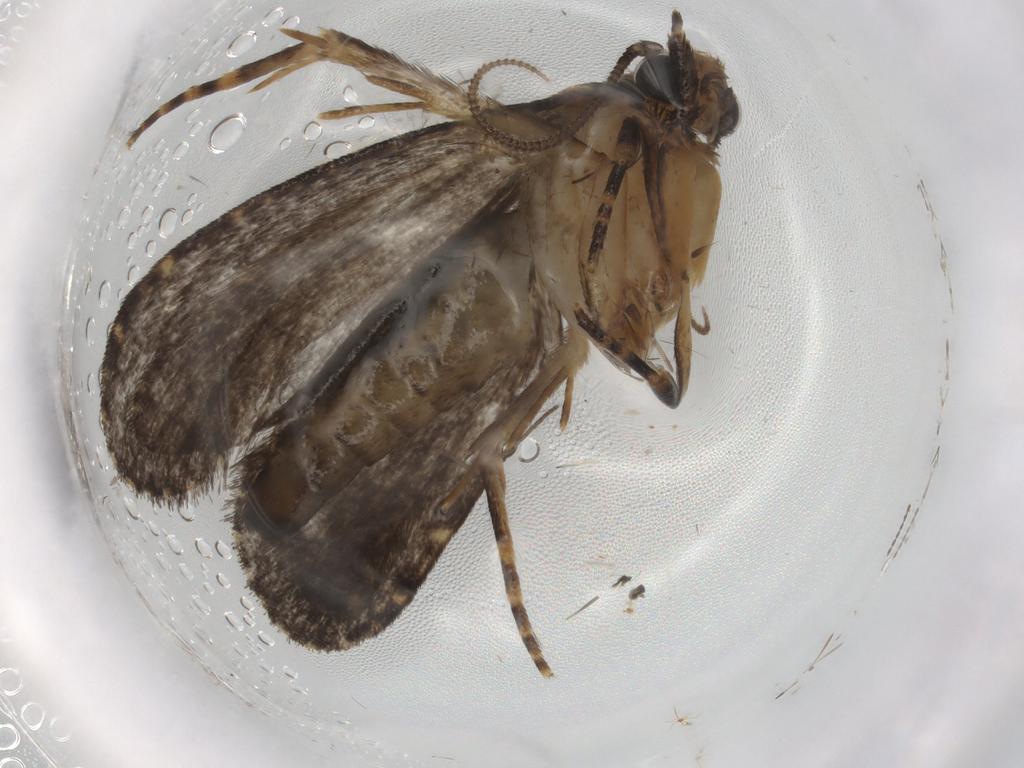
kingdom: Animalia
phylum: Arthropoda
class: Insecta
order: Lepidoptera
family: Tineidae
